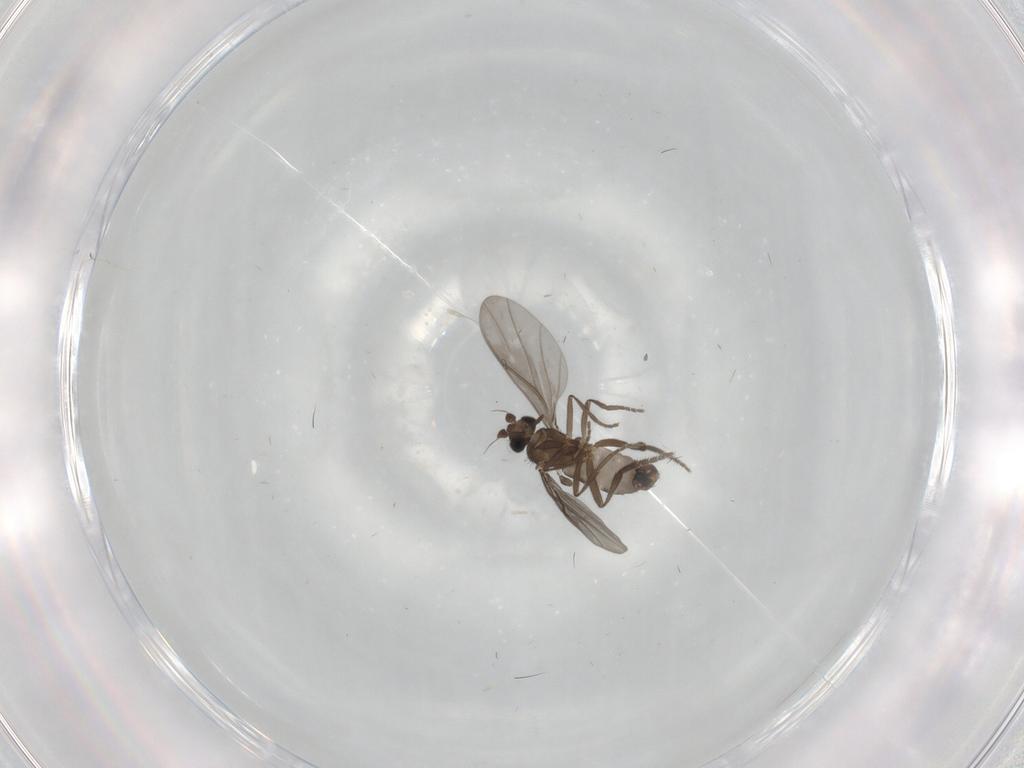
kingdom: Animalia
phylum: Arthropoda
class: Insecta
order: Diptera
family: Phoridae
